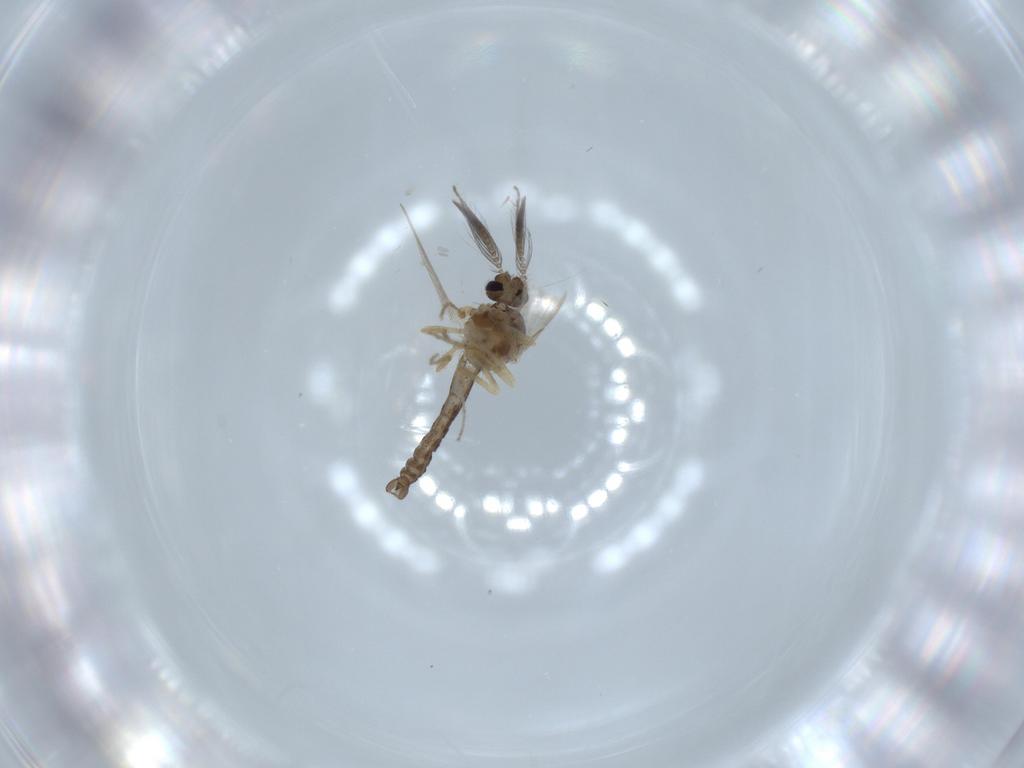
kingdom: Animalia
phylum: Arthropoda
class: Insecta
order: Diptera
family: Ceratopogonidae
